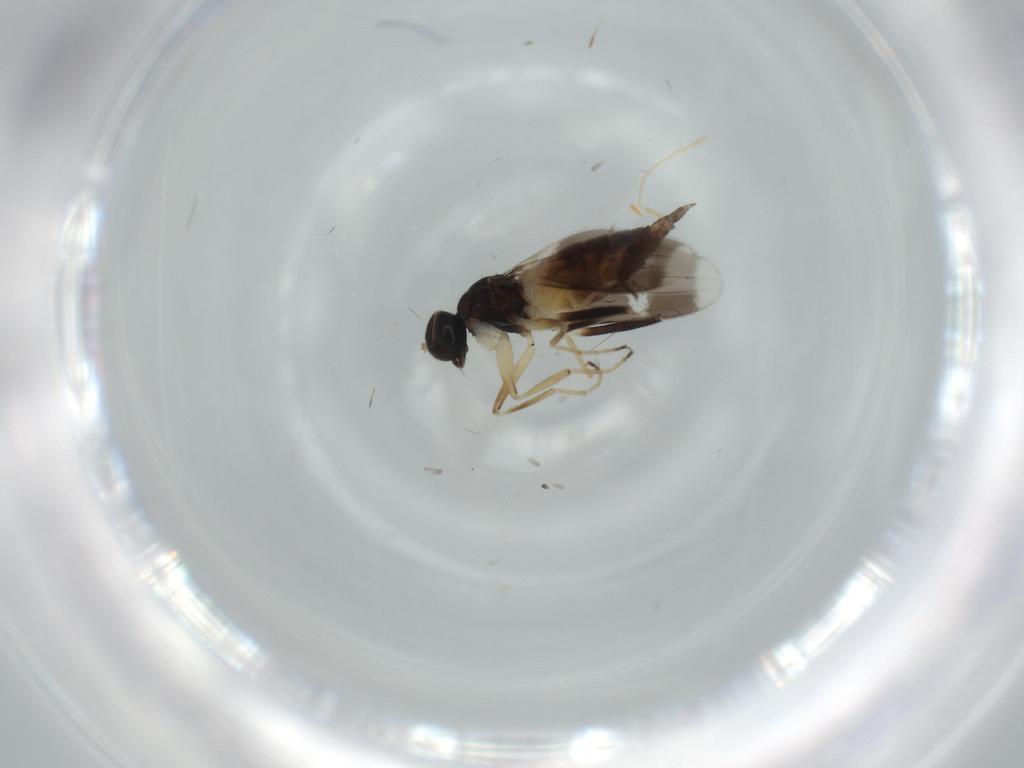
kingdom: Animalia
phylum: Arthropoda
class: Insecta
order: Diptera
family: Hybotidae
